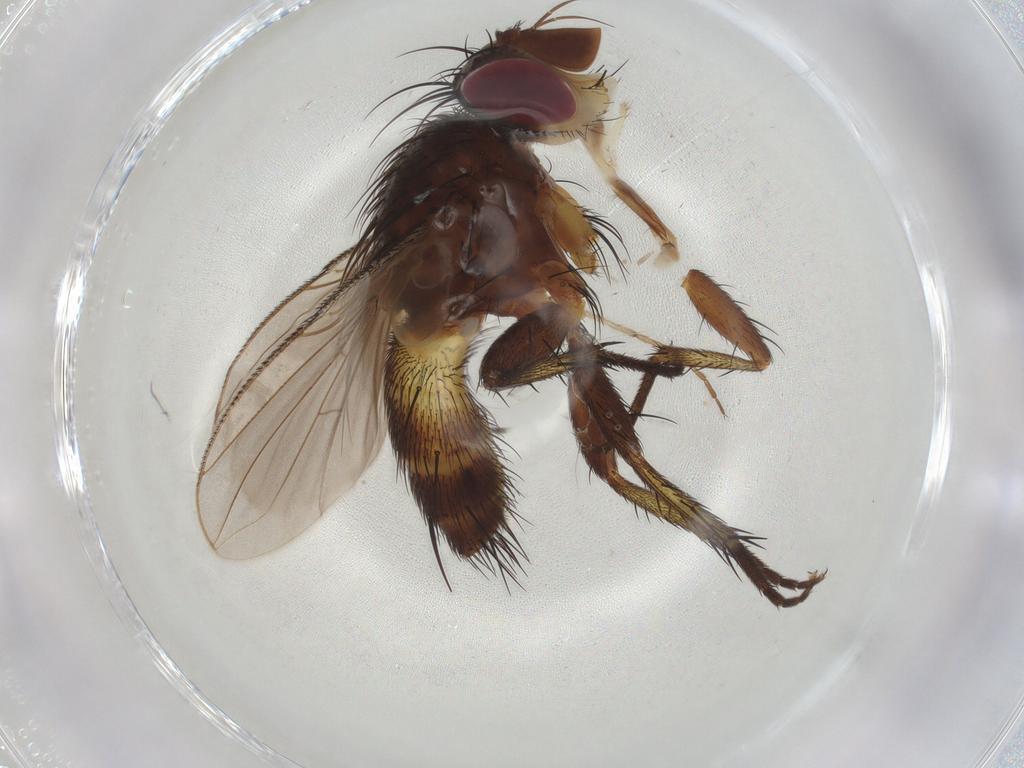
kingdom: Animalia
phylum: Arthropoda
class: Insecta
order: Diptera
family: Tachinidae
